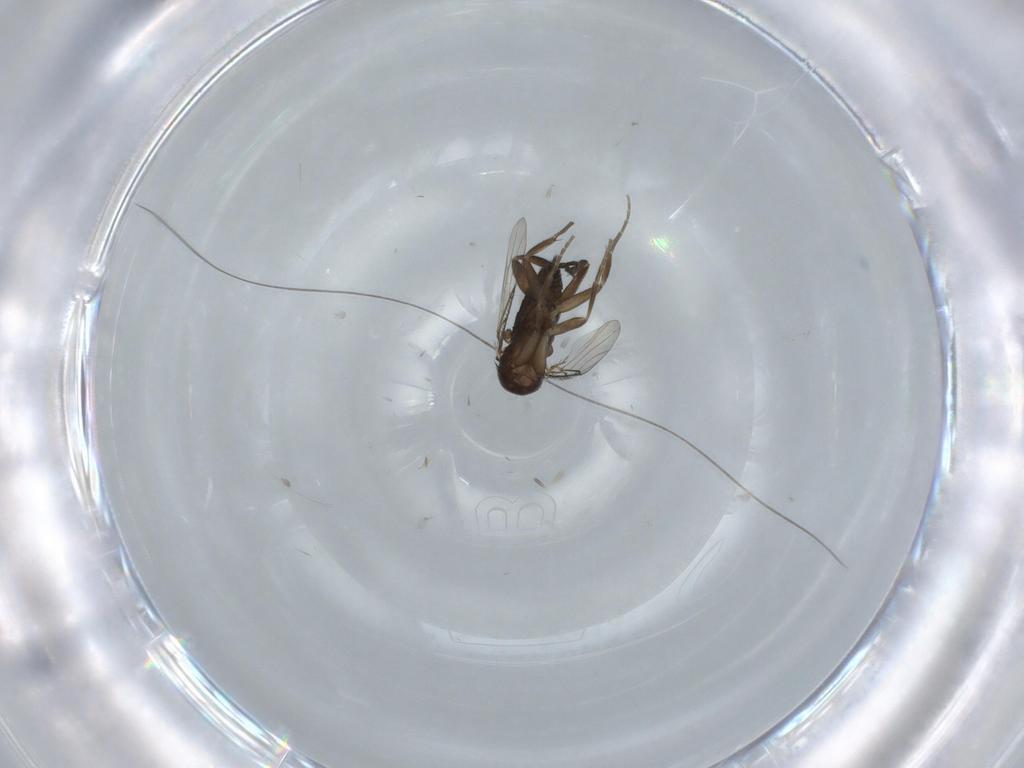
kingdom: Animalia
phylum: Arthropoda
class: Insecta
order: Diptera
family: Phoridae
